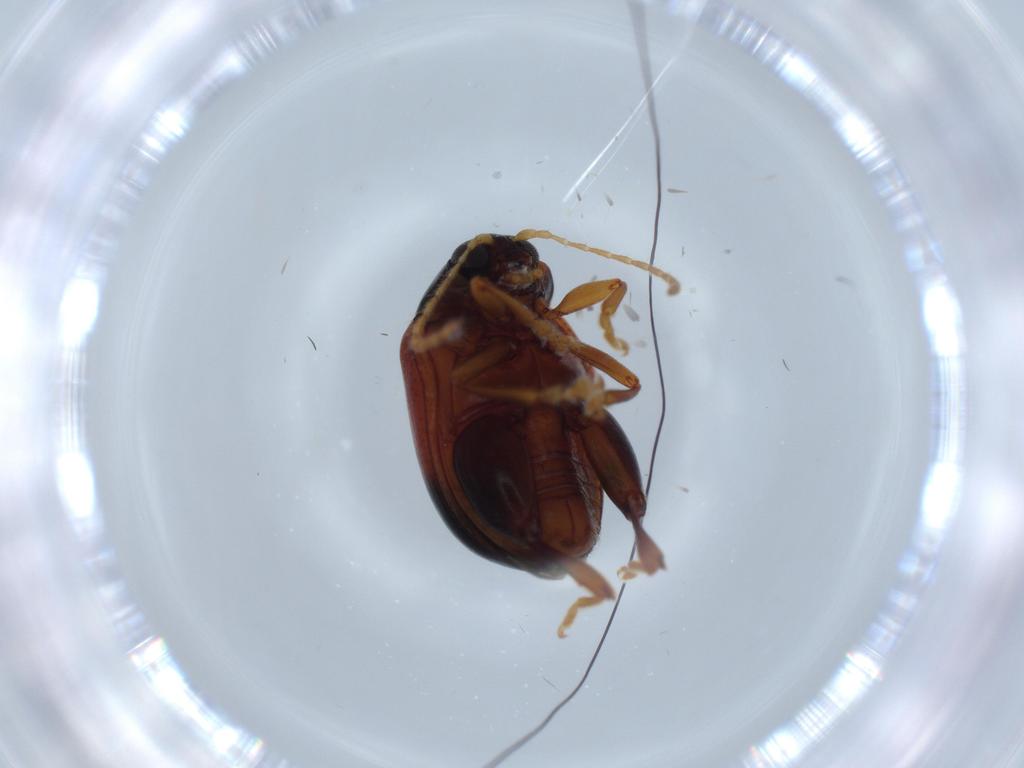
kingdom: Animalia
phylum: Arthropoda
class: Insecta
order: Coleoptera
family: Chrysomelidae
